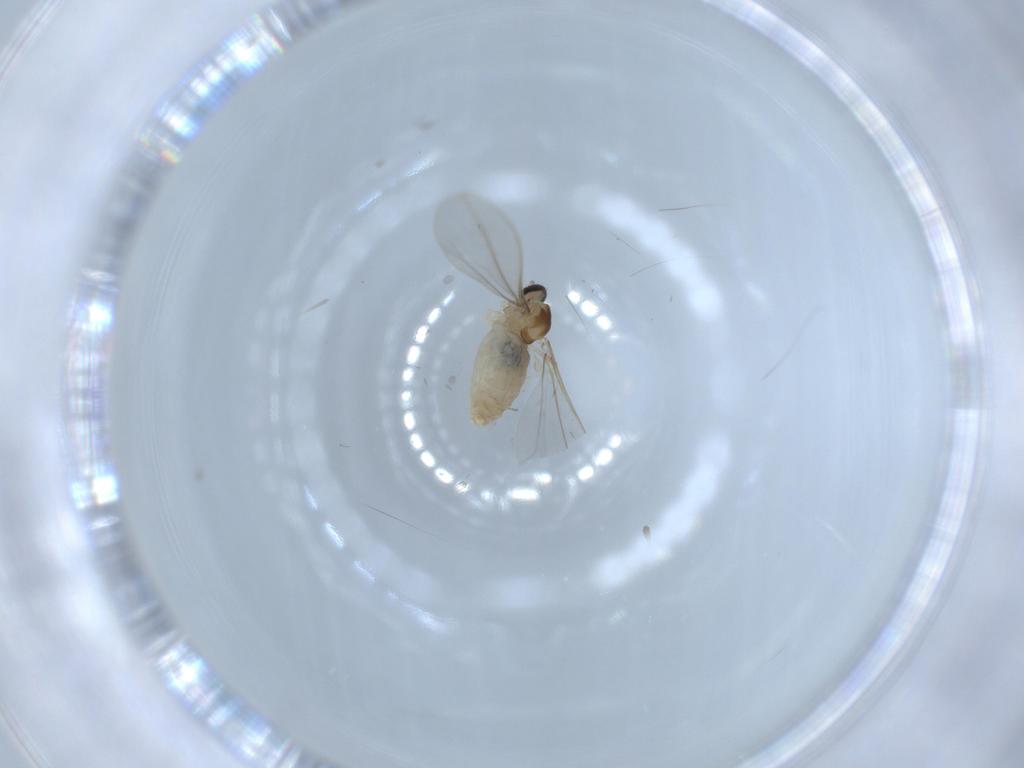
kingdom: Animalia
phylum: Arthropoda
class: Insecta
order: Diptera
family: Cecidomyiidae
